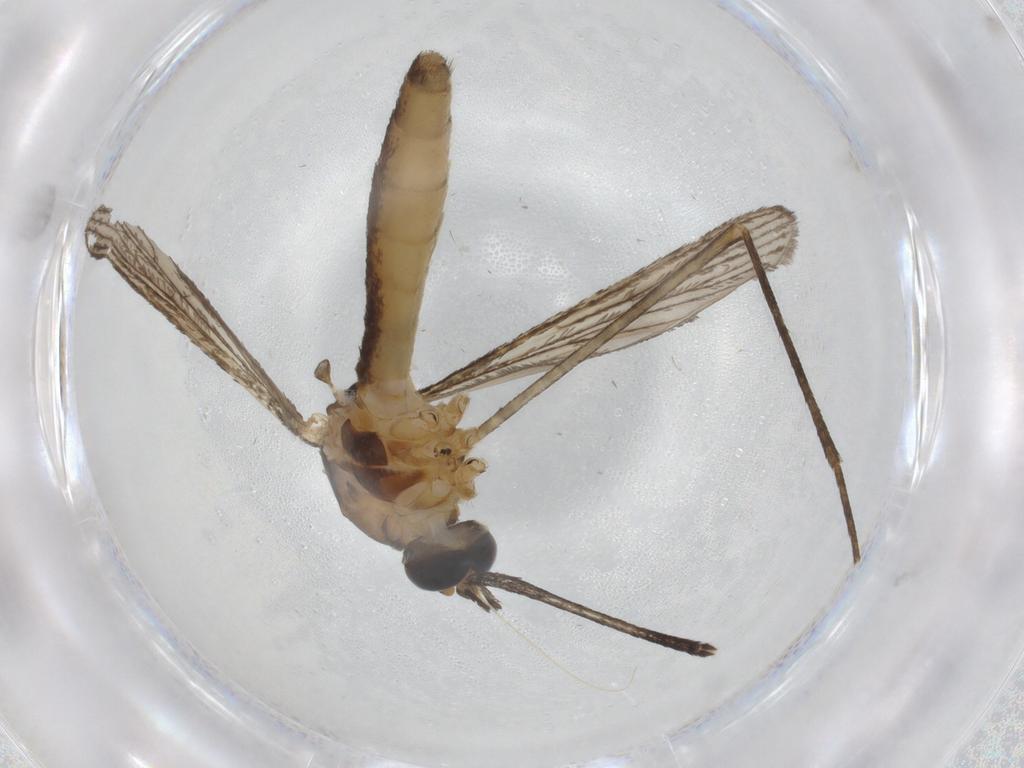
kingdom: Animalia
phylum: Arthropoda
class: Insecta
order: Diptera
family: Culicidae
